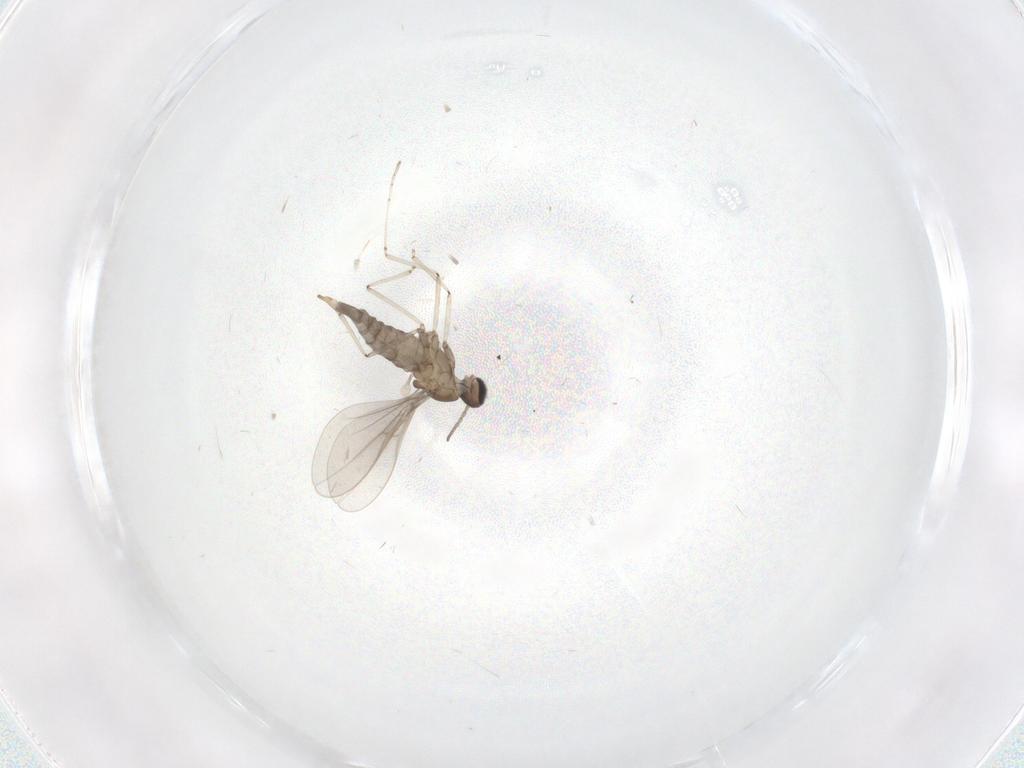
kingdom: Animalia
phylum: Arthropoda
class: Insecta
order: Diptera
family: Cecidomyiidae
